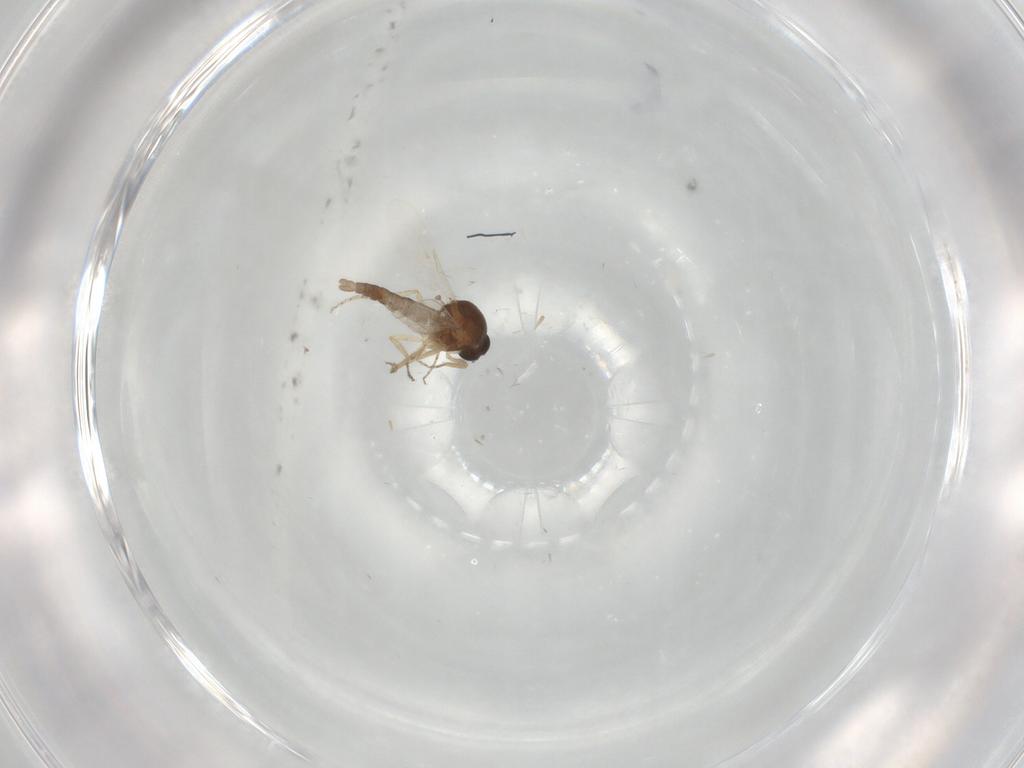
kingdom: Animalia
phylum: Arthropoda
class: Insecta
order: Diptera
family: Ceratopogonidae
